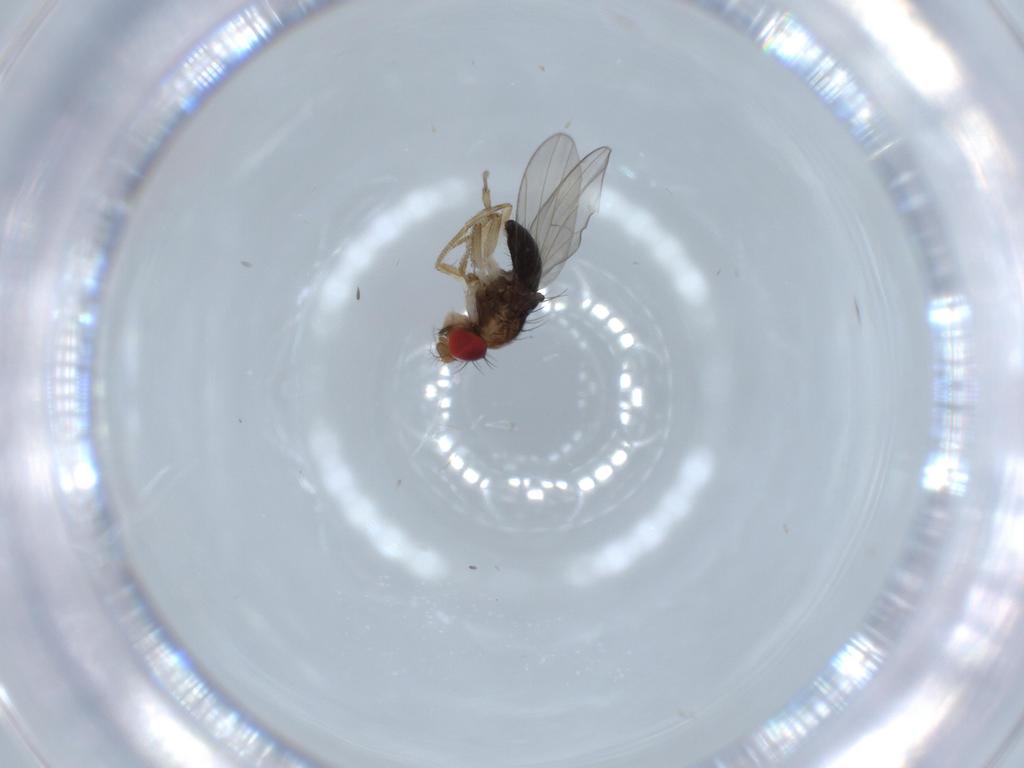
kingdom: Animalia
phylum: Arthropoda
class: Insecta
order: Diptera
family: Phoridae
